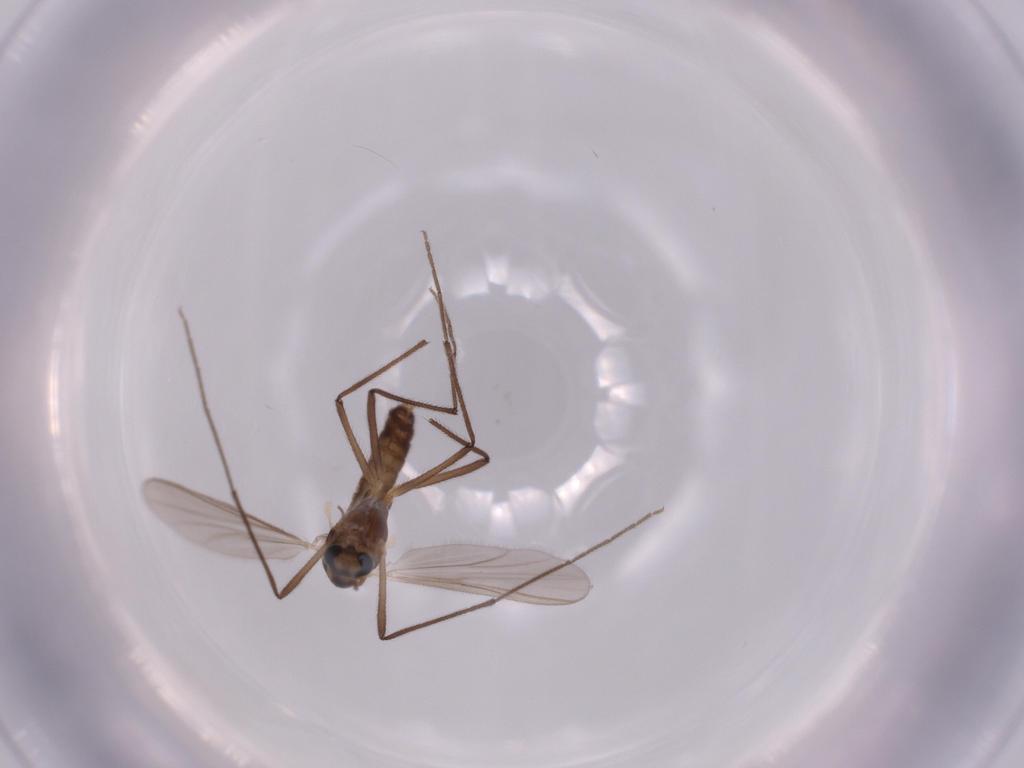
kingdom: Animalia
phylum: Arthropoda
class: Insecta
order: Diptera
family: Chironomidae
